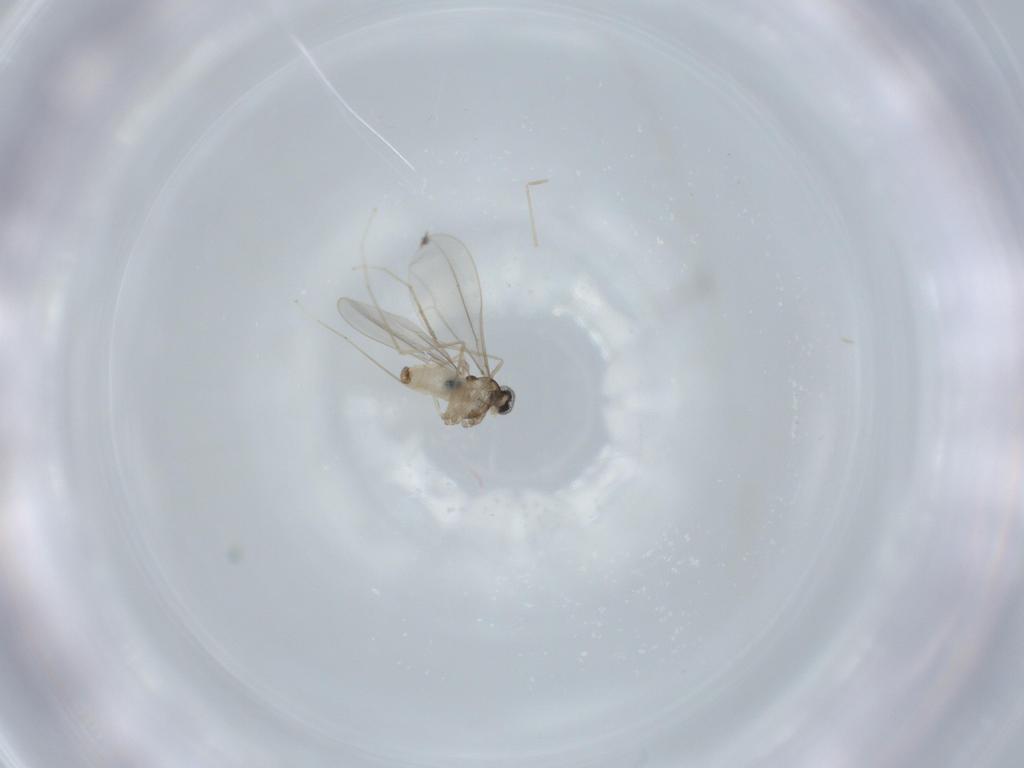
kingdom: Animalia
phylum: Arthropoda
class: Insecta
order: Diptera
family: Cecidomyiidae
